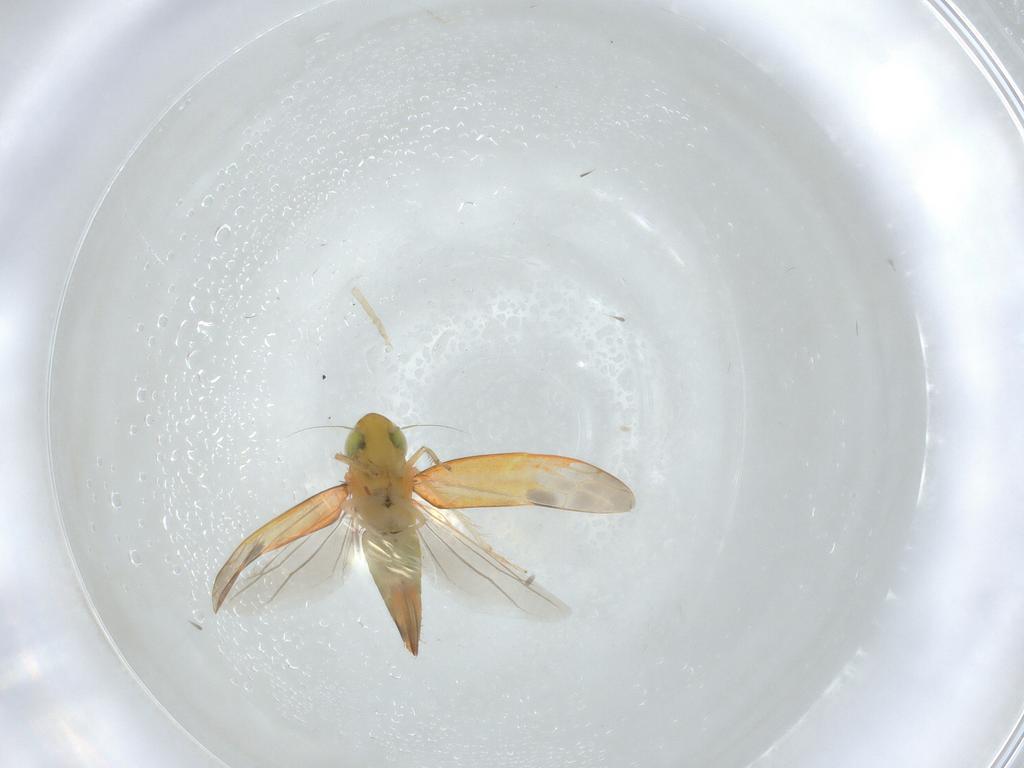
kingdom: Animalia
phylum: Arthropoda
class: Insecta
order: Hemiptera
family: Cicadellidae
